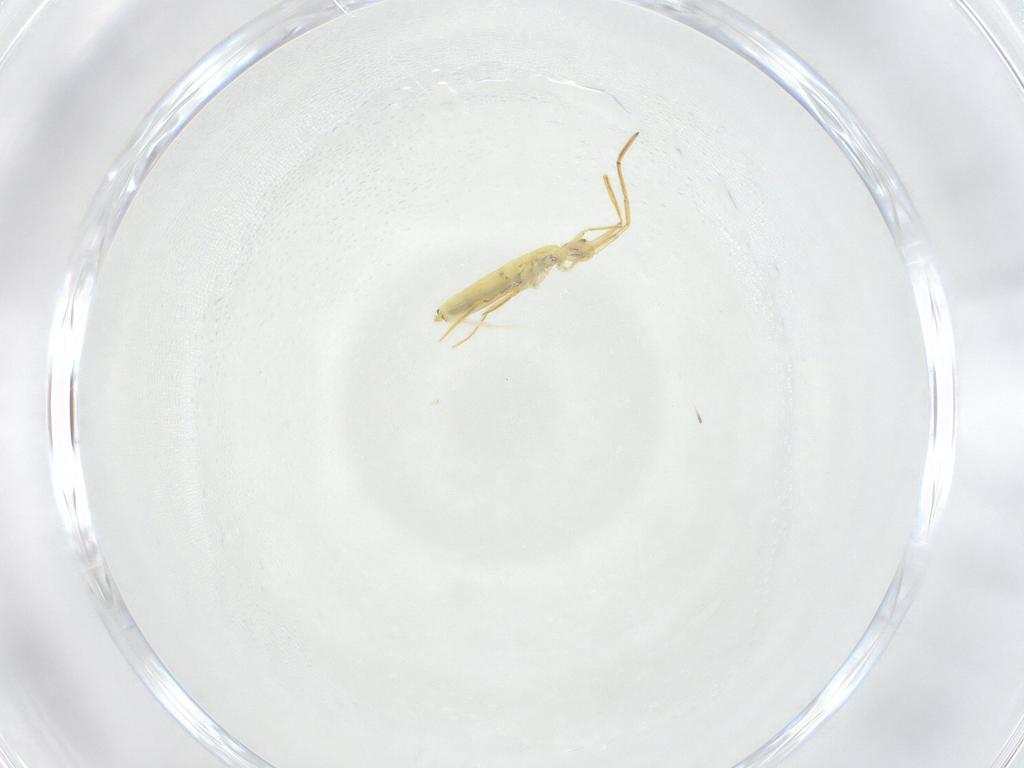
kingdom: Animalia
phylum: Arthropoda
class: Collembola
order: Entomobryomorpha
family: Entomobryidae
